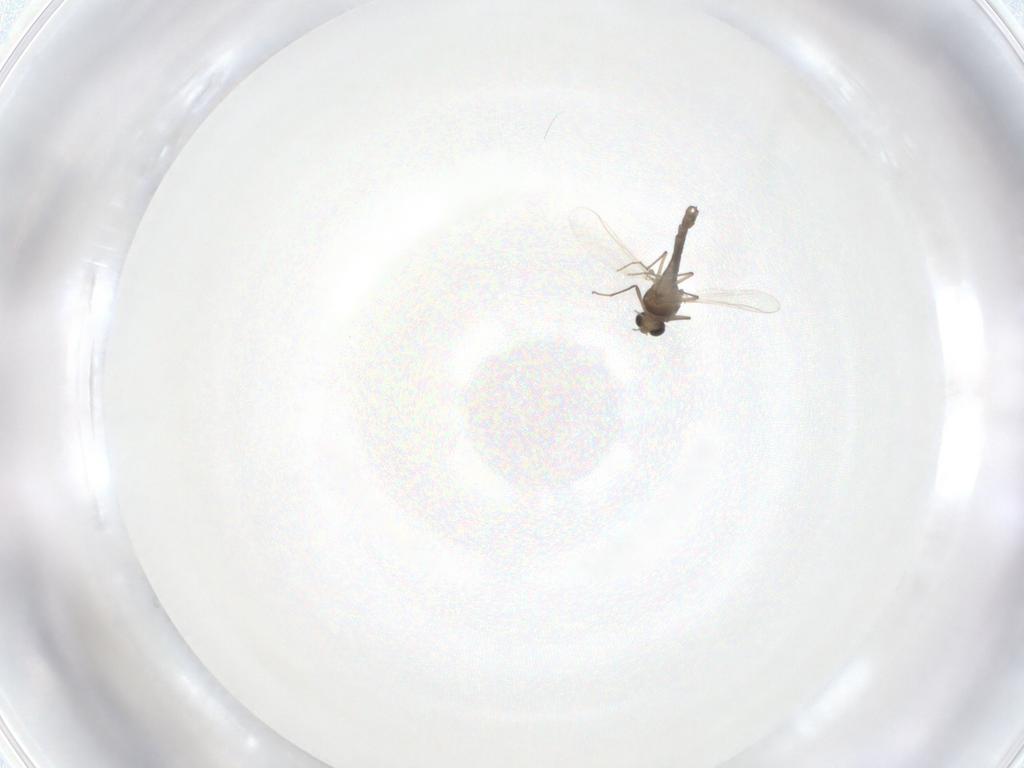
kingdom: Animalia
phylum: Arthropoda
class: Insecta
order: Diptera
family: Chironomidae
